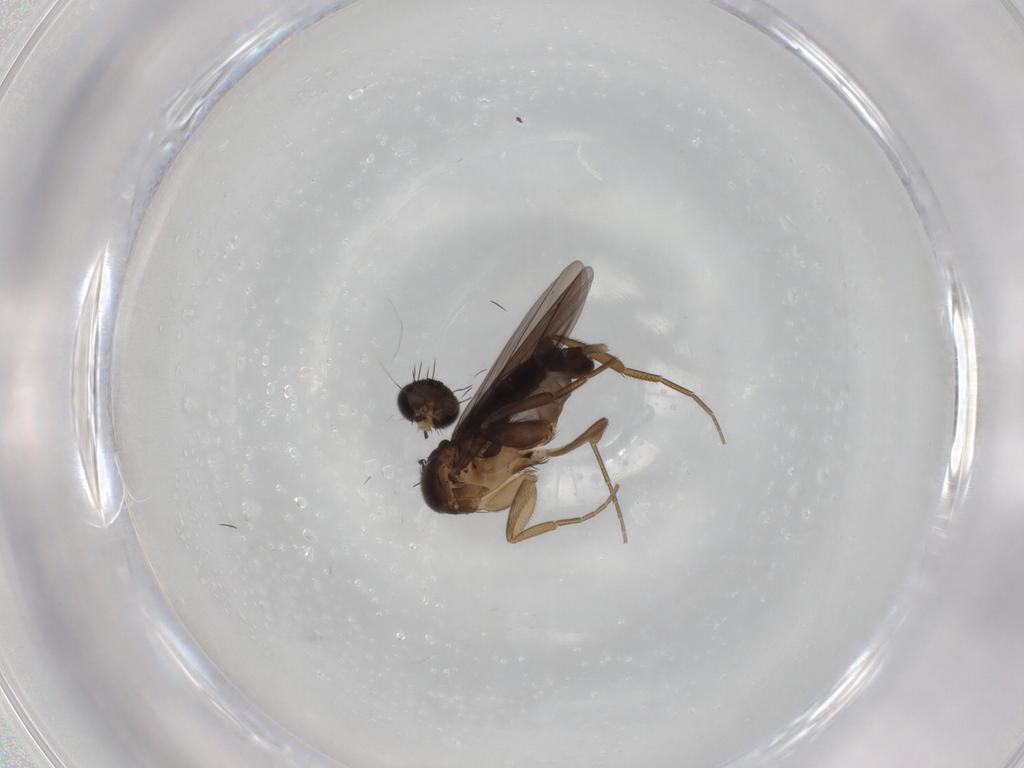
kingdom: Animalia
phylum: Arthropoda
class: Insecta
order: Diptera
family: Phoridae
